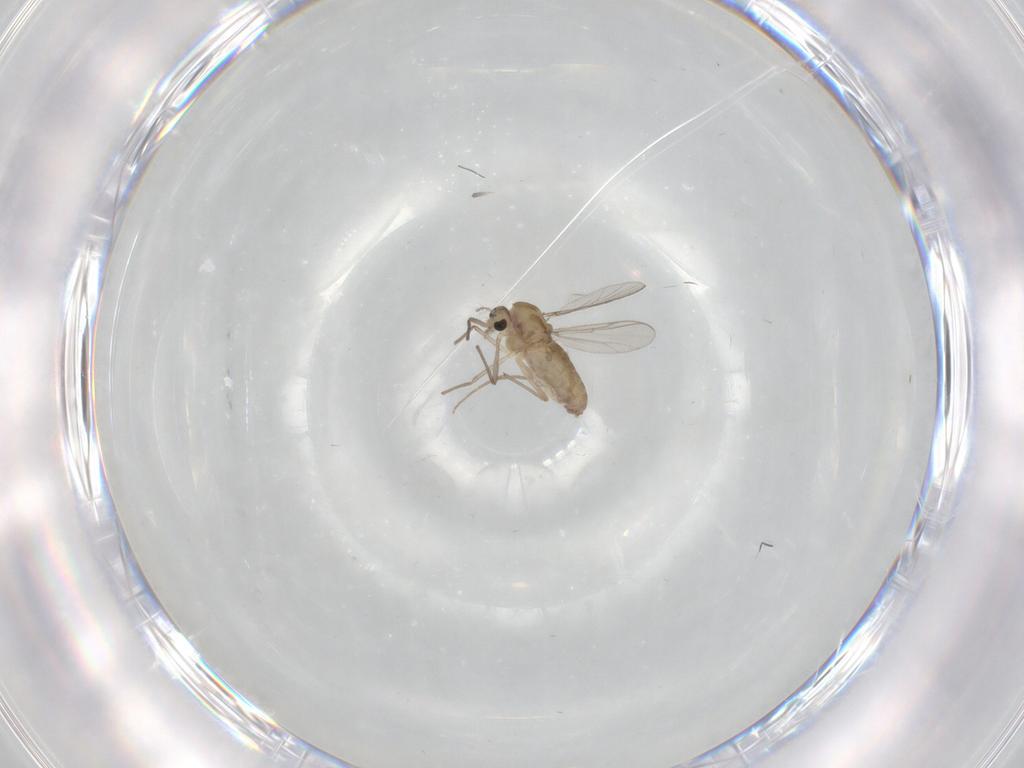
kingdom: Animalia
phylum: Arthropoda
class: Insecta
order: Diptera
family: Chironomidae
